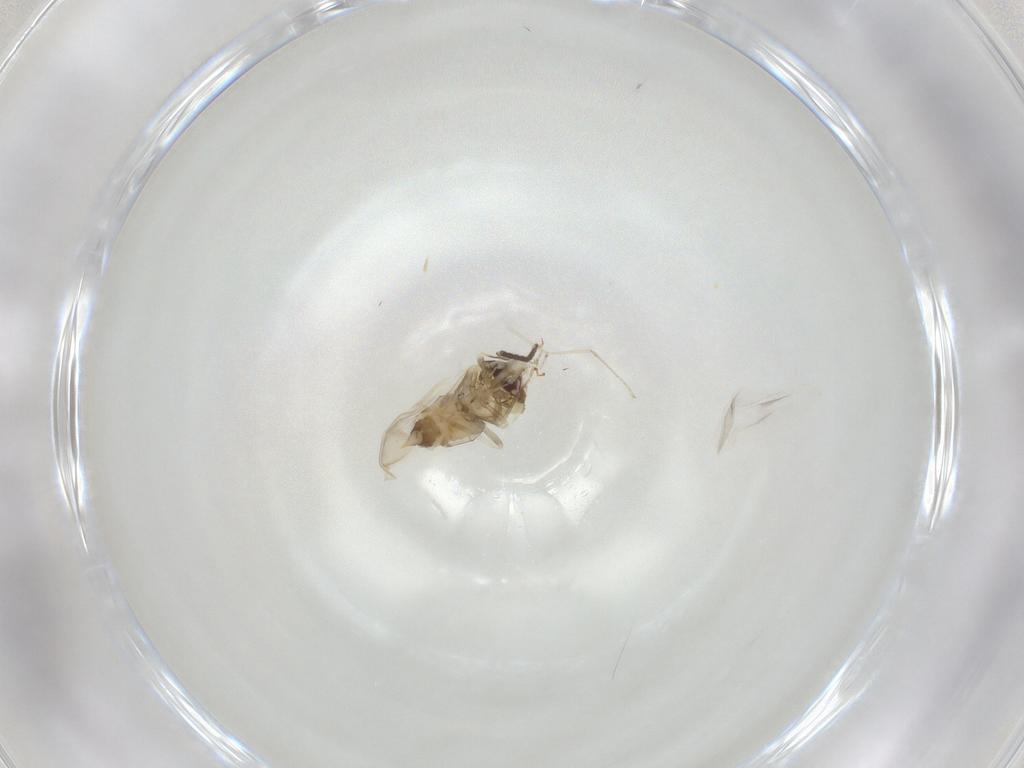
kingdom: Animalia
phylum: Arthropoda
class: Insecta
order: Hemiptera
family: Aleyrodidae
